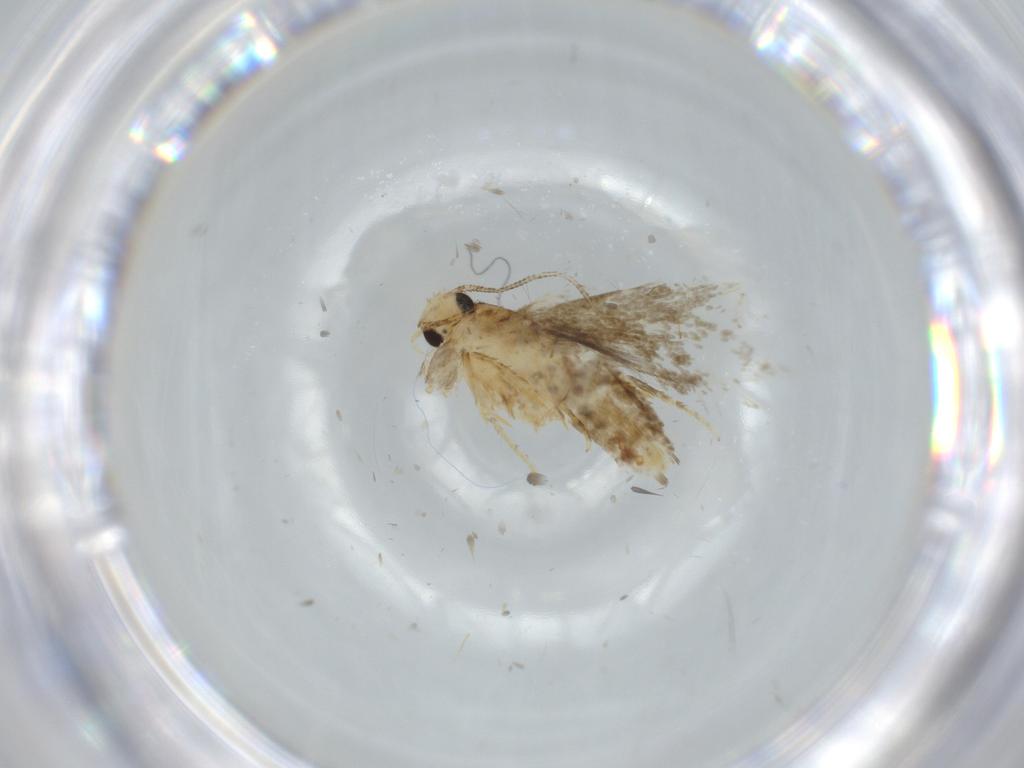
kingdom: Animalia
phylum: Arthropoda
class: Insecta
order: Lepidoptera
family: Tineidae
